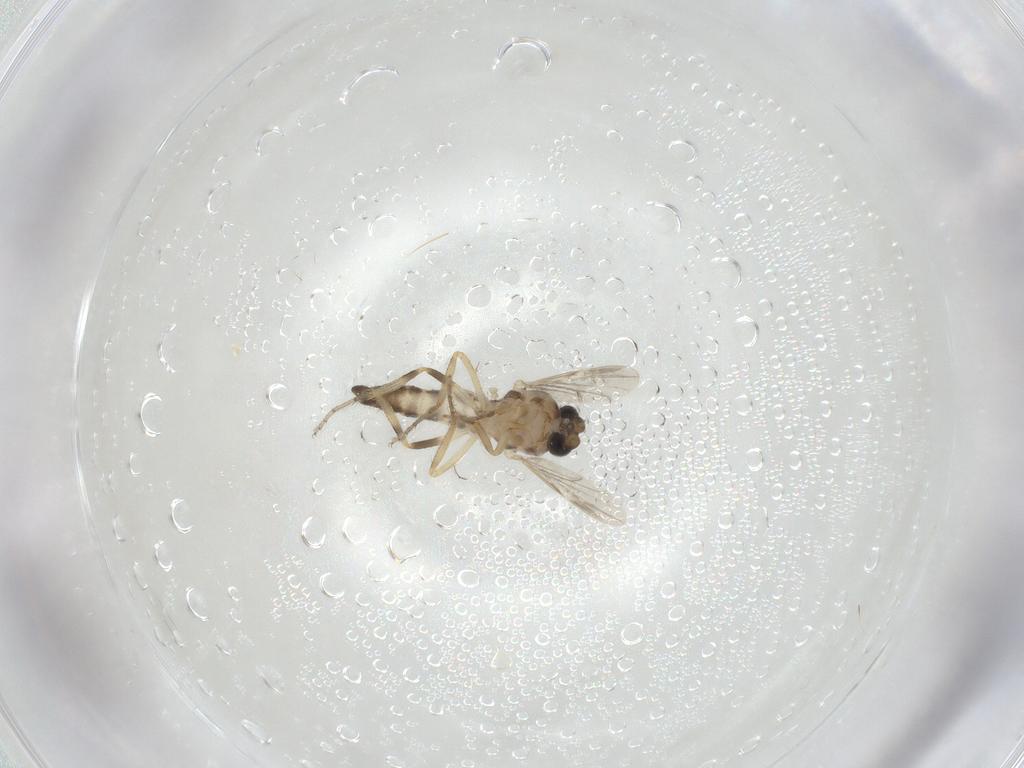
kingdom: Animalia
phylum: Arthropoda
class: Insecta
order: Diptera
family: Ceratopogonidae
